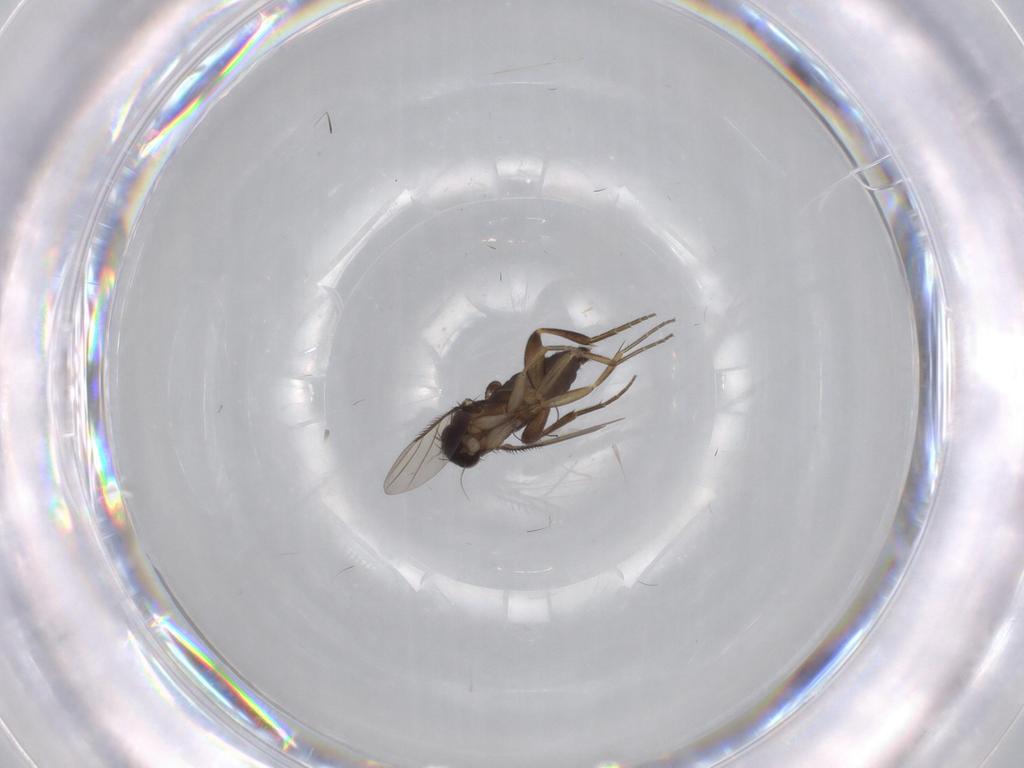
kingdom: Animalia
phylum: Arthropoda
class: Insecta
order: Diptera
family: Phoridae
